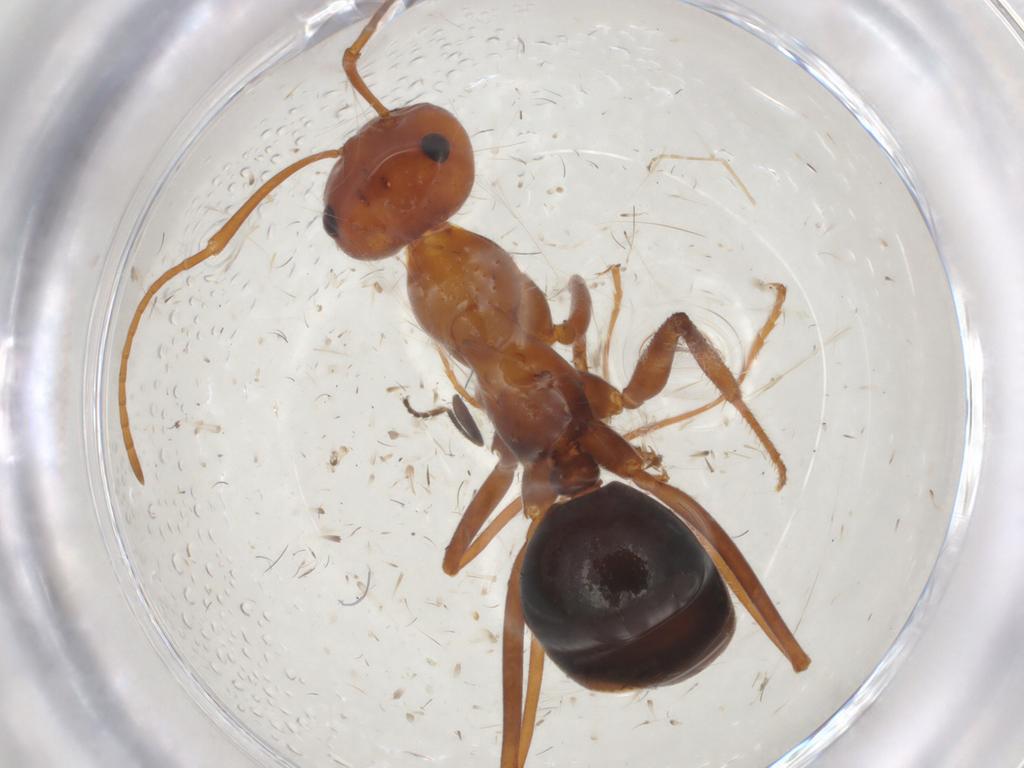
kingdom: Animalia
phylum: Arthropoda
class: Insecta
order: Hymenoptera
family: Formicidae
